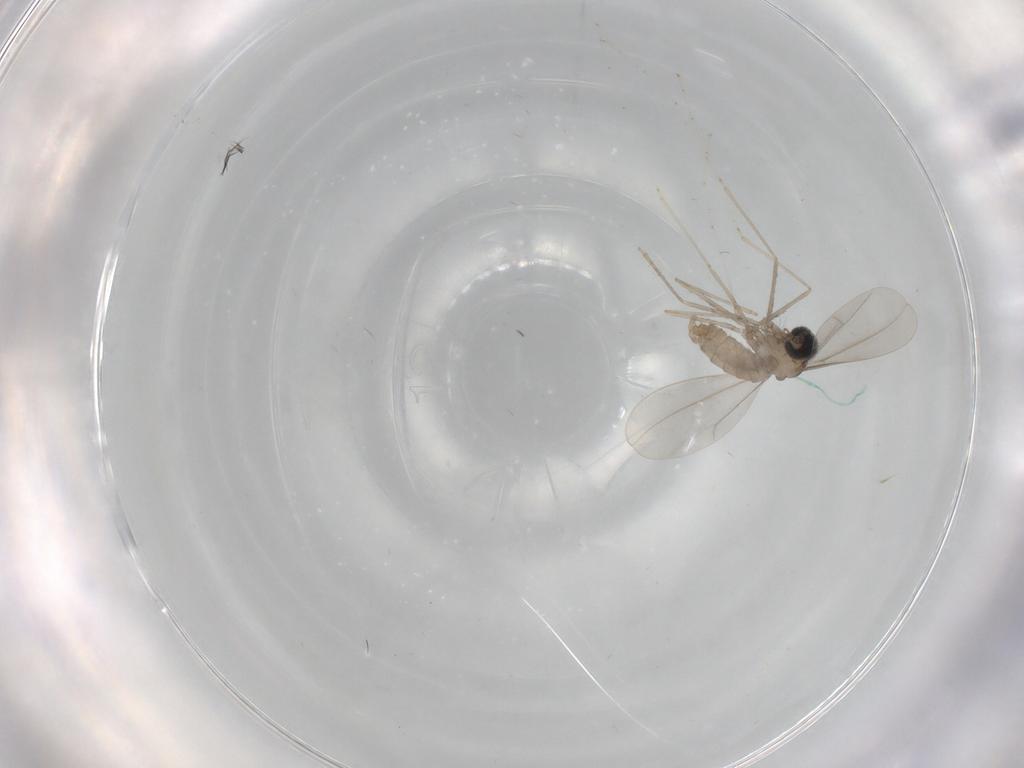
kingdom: Animalia
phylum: Arthropoda
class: Insecta
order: Diptera
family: Cecidomyiidae
